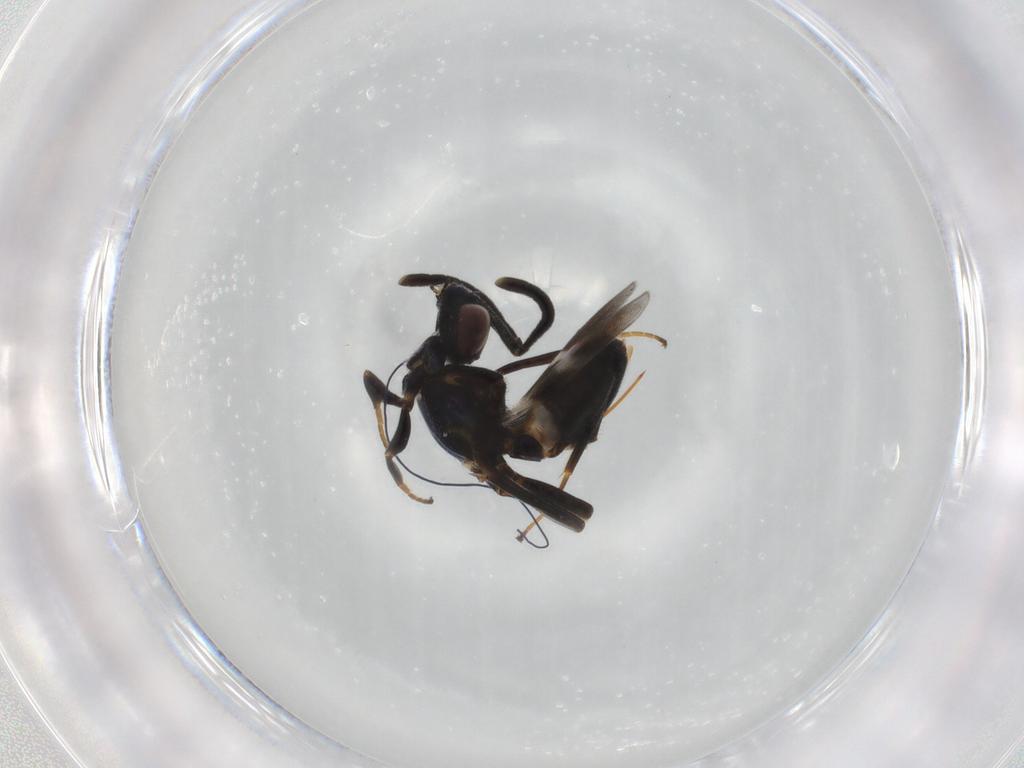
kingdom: Animalia
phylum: Arthropoda
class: Insecta
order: Hymenoptera
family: Eupelmidae
